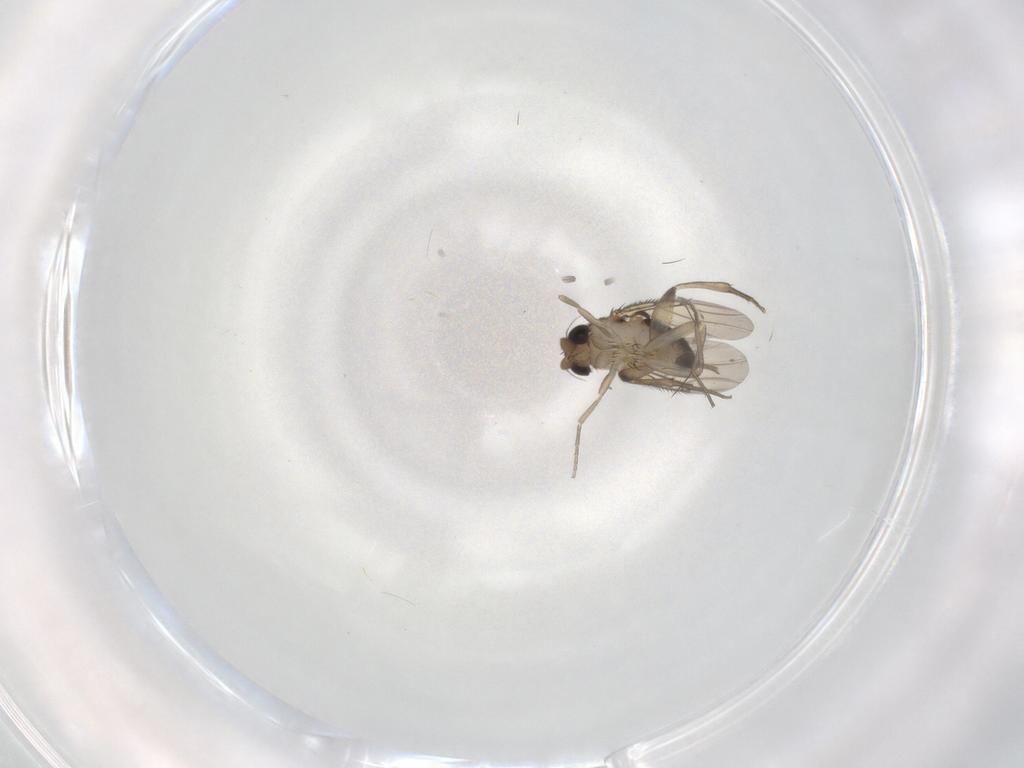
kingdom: Animalia
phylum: Arthropoda
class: Insecta
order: Diptera
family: Phoridae
